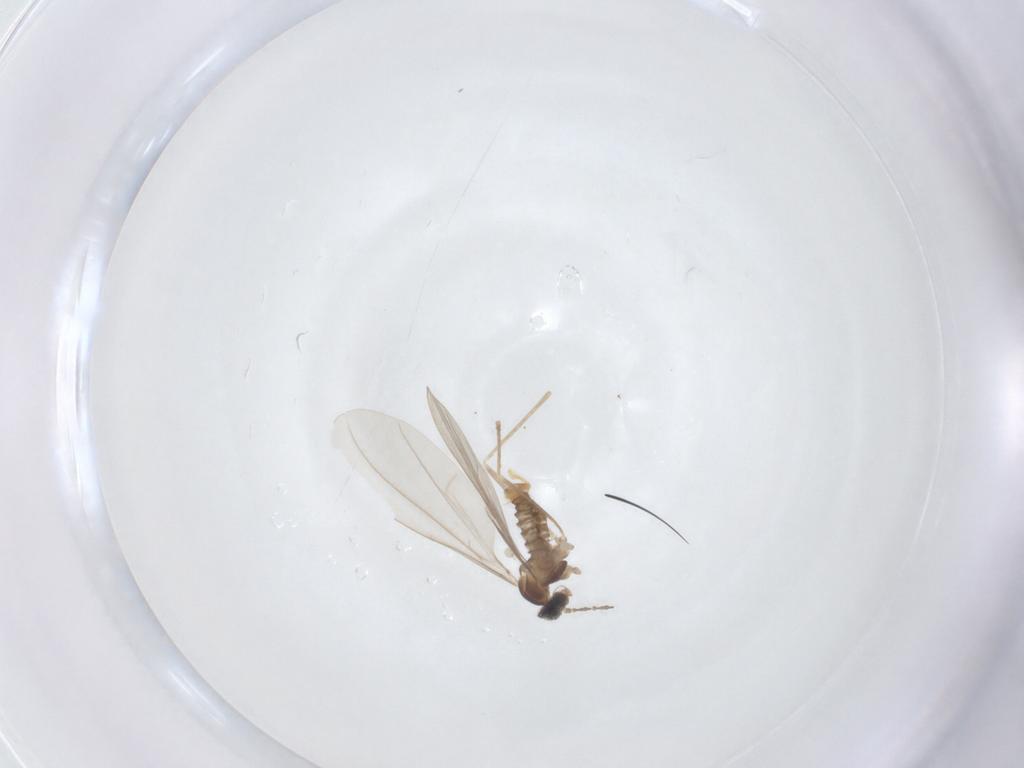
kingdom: Animalia
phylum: Arthropoda
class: Insecta
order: Diptera
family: Cecidomyiidae
